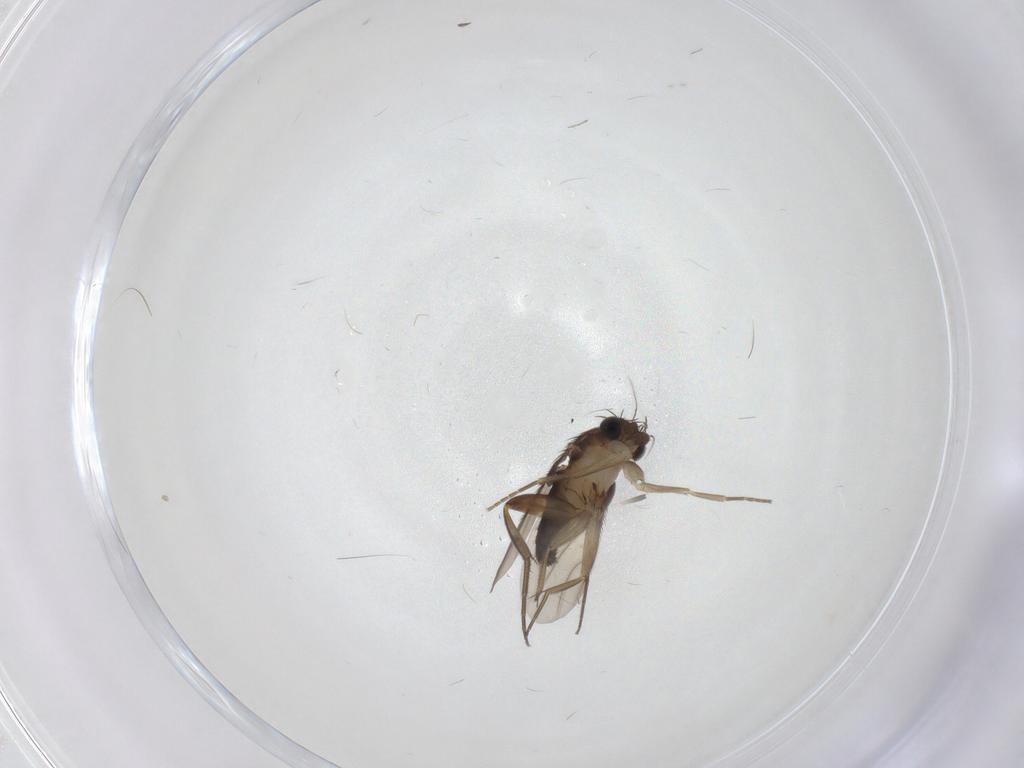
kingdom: Animalia
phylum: Arthropoda
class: Insecta
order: Diptera
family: Phoridae
